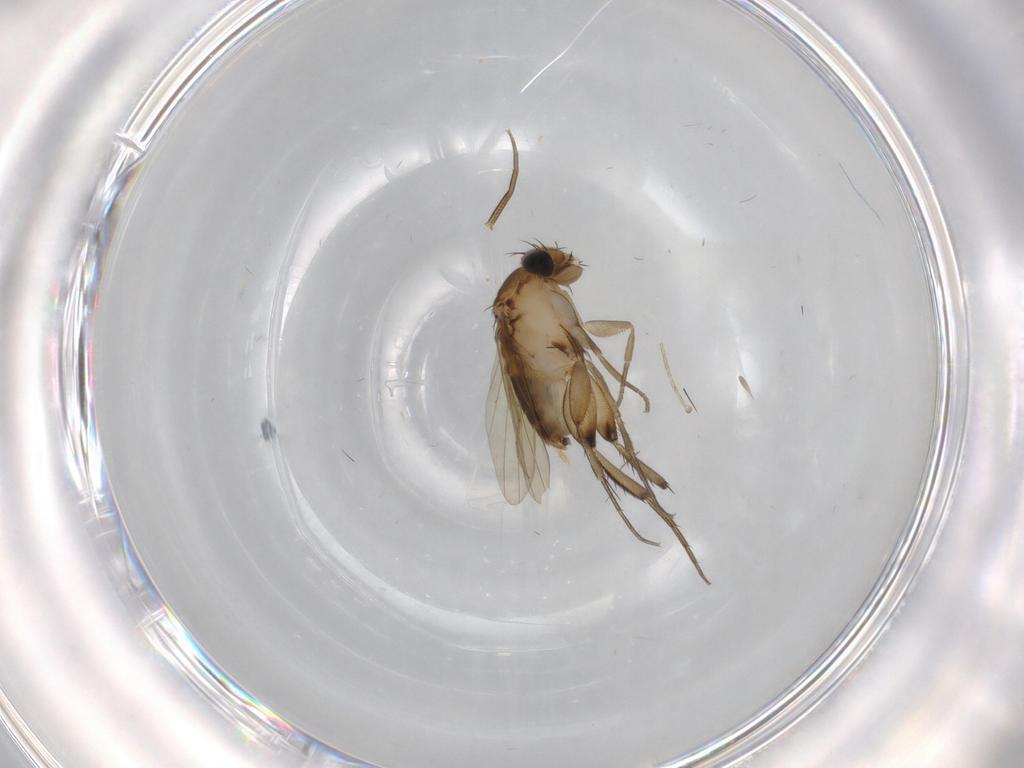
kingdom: Animalia
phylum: Arthropoda
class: Insecta
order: Diptera
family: Phoridae
